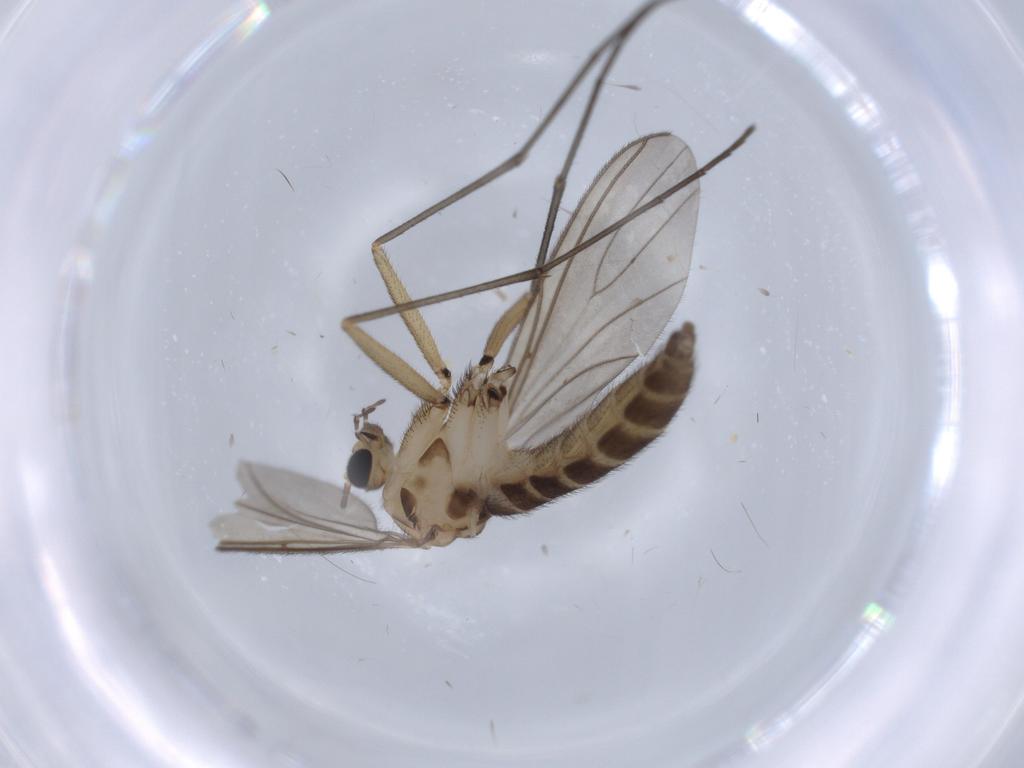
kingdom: Animalia
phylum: Arthropoda
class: Insecta
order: Diptera
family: Sciaridae
